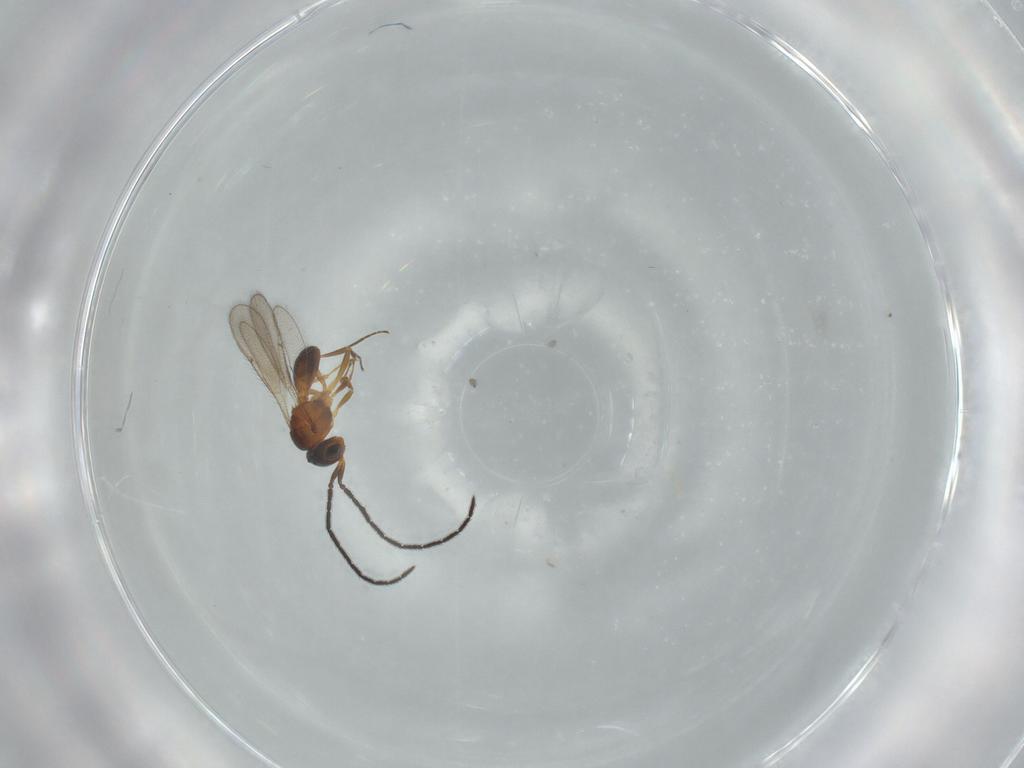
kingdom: Animalia
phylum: Arthropoda
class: Insecta
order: Hymenoptera
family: Scelionidae
